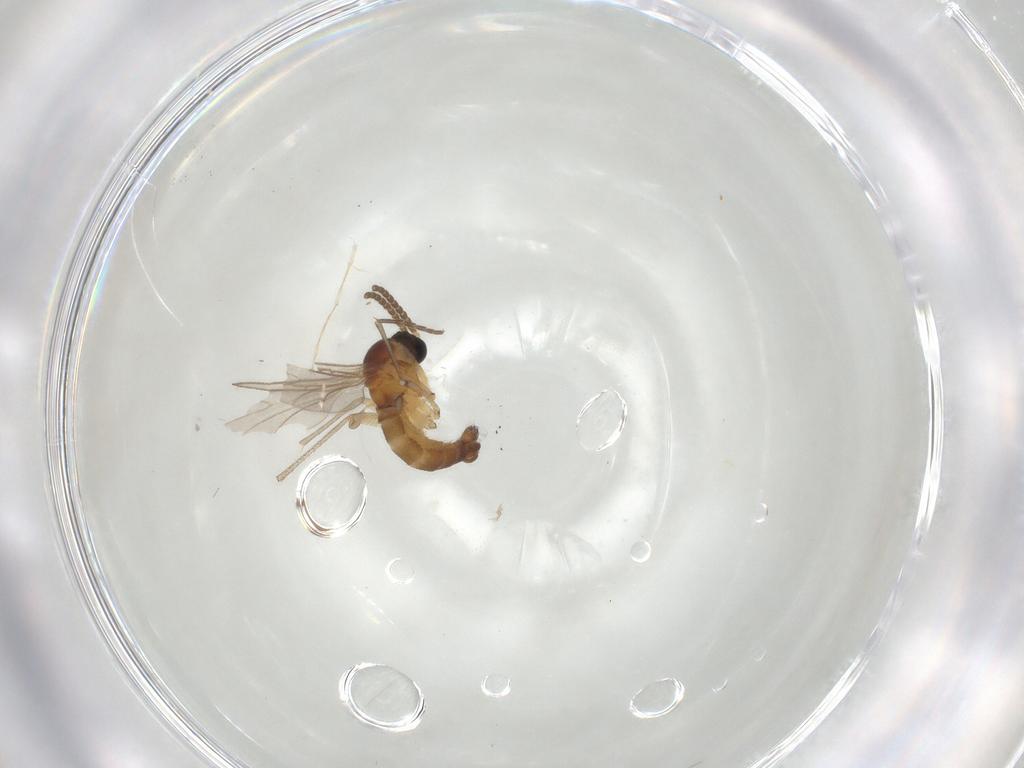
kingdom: Animalia
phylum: Arthropoda
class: Insecta
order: Diptera
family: Sciaridae
